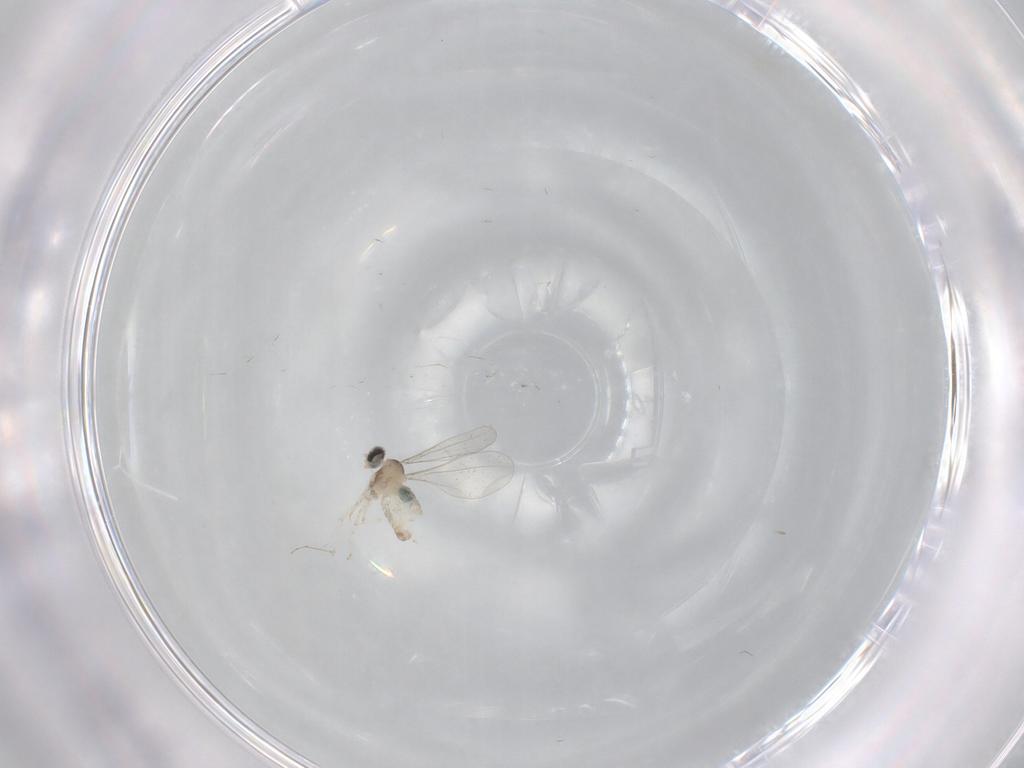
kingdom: Animalia
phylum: Arthropoda
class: Insecta
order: Diptera
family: Cecidomyiidae
